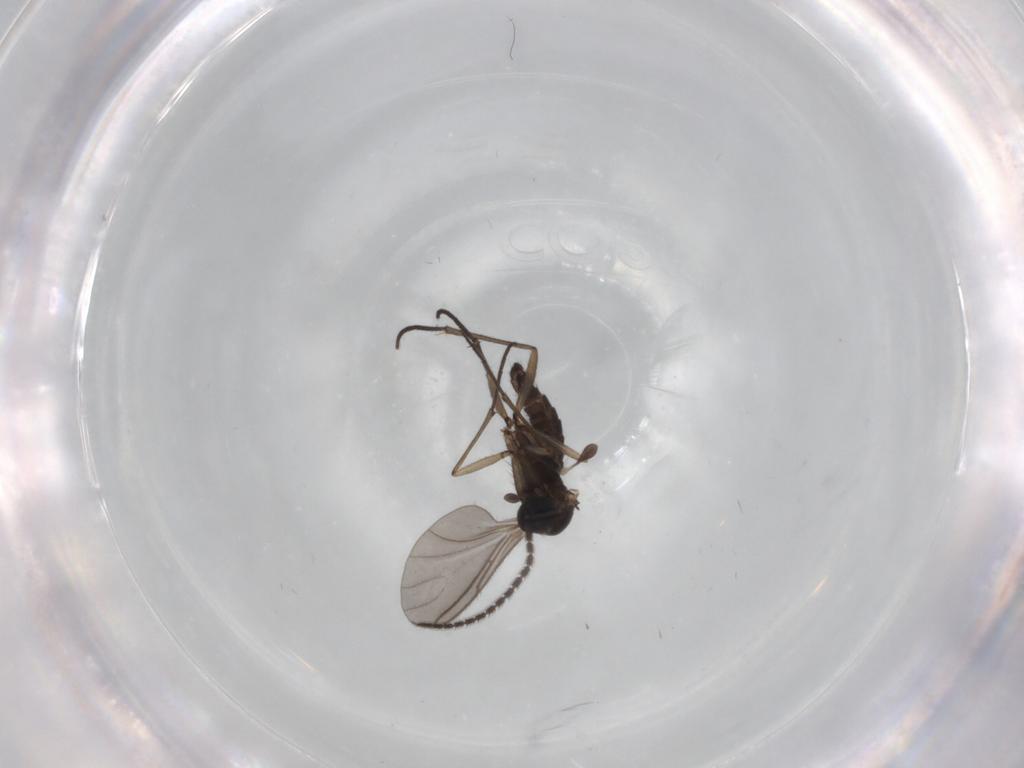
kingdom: Animalia
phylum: Arthropoda
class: Insecta
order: Diptera
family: Sciaridae
